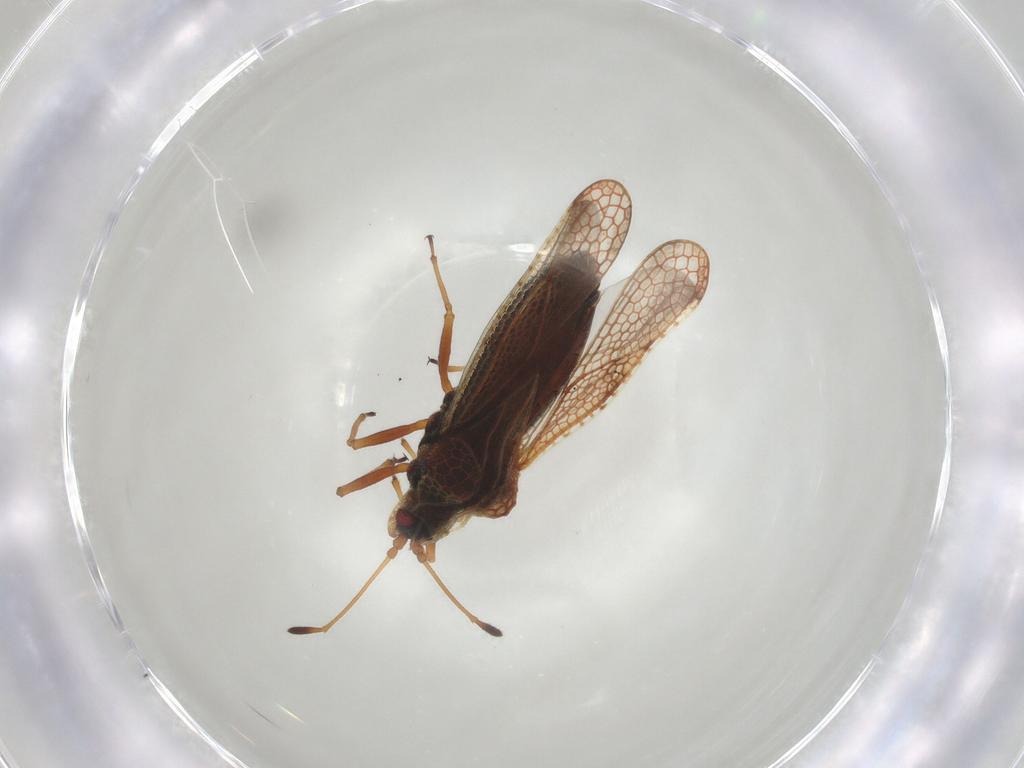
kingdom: Animalia
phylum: Arthropoda
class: Insecta
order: Hemiptera
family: Tingidae
